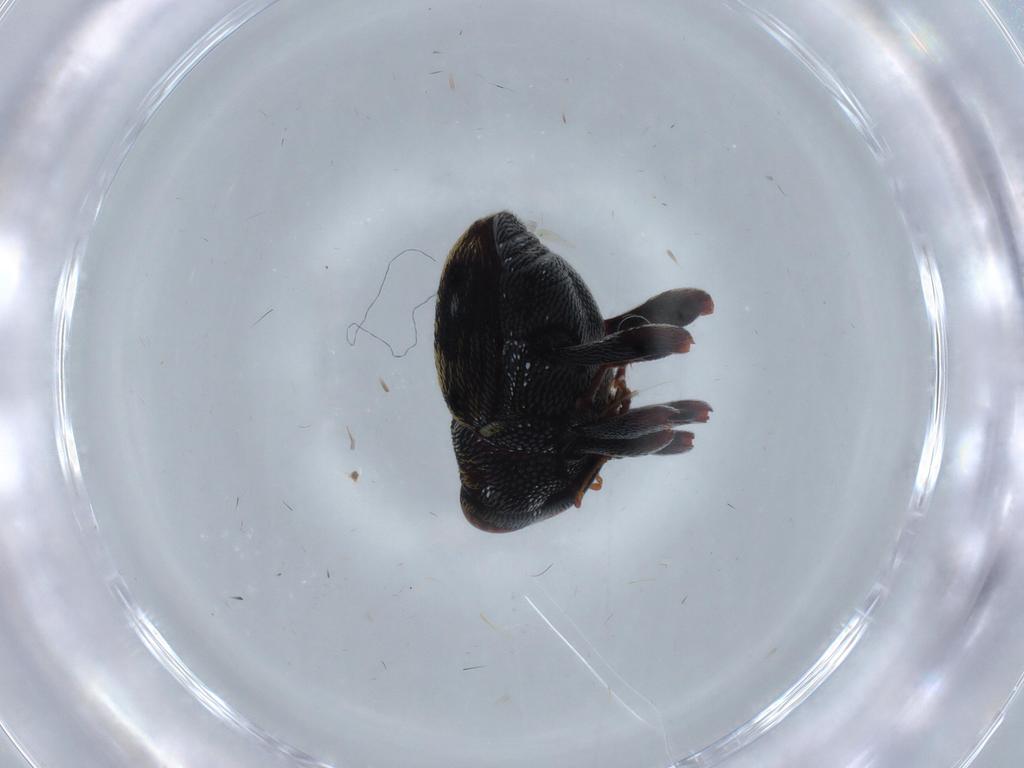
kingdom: Animalia
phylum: Arthropoda
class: Insecta
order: Coleoptera
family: Curculionidae
